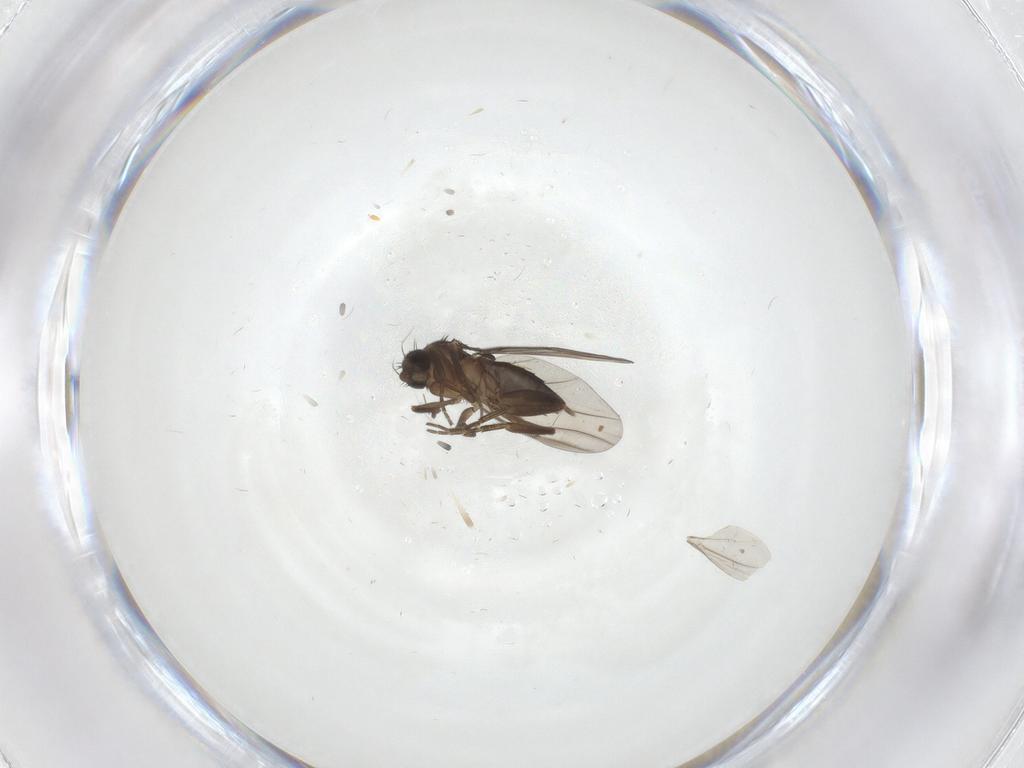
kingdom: Animalia
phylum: Arthropoda
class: Insecta
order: Diptera
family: Phoridae
